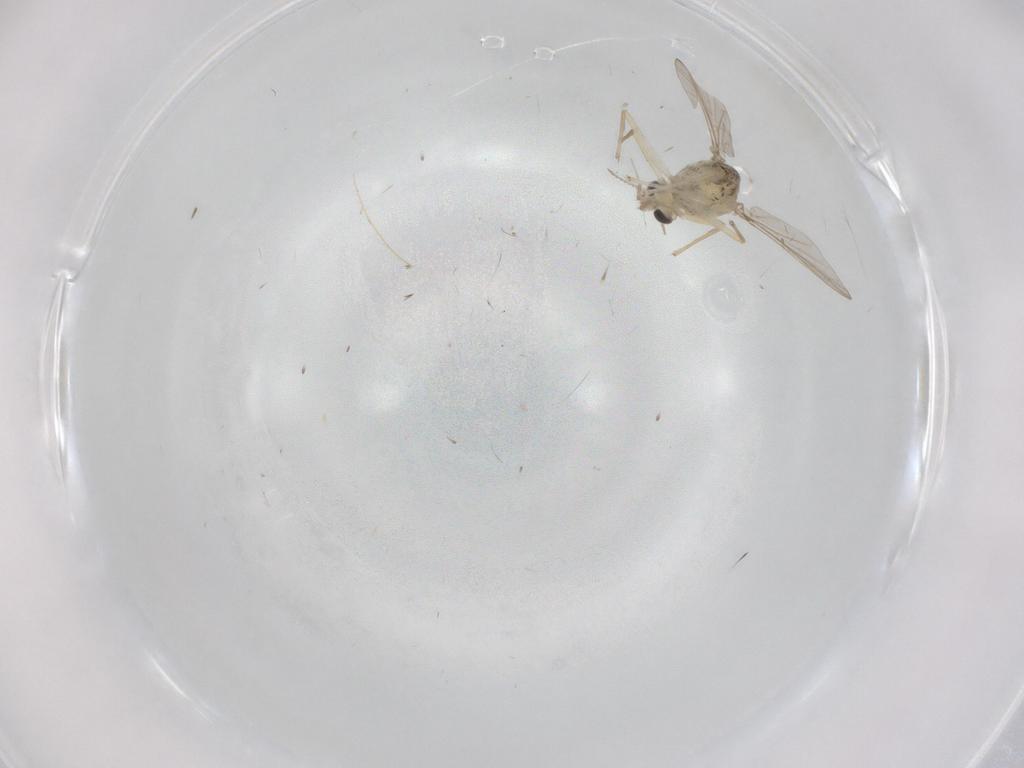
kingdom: Animalia
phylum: Arthropoda
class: Insecta
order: Diptera
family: Chironomidae
